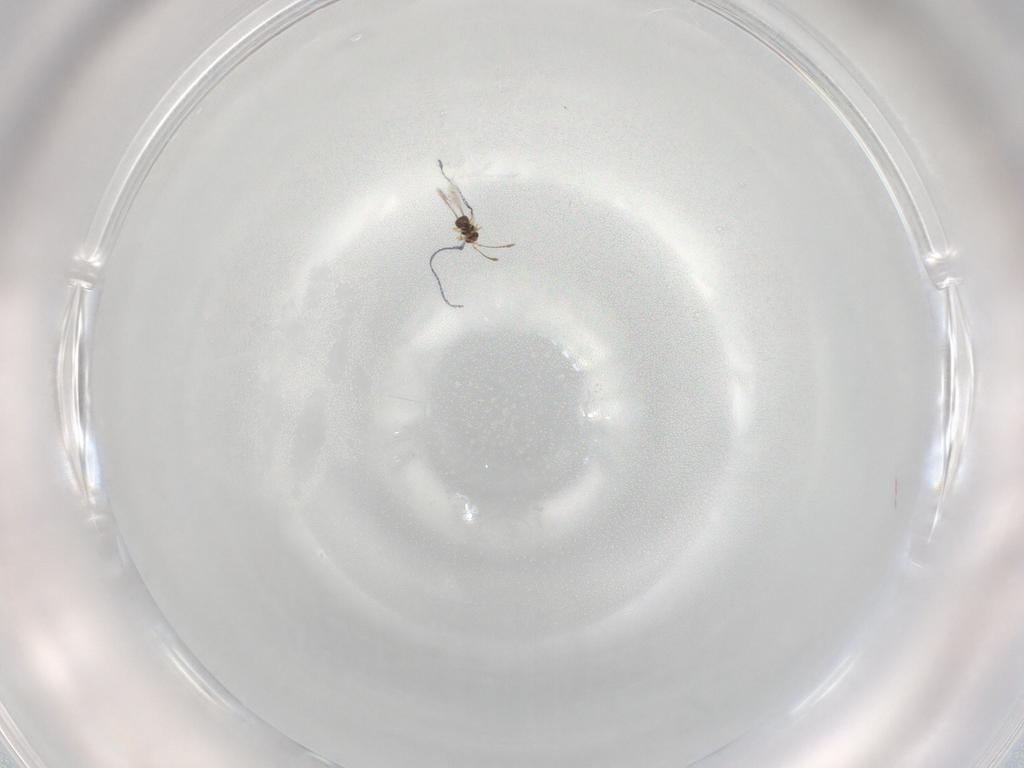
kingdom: Animalia
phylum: Arthropoda
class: Insecta
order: Hymenoptera
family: Mymaridae
